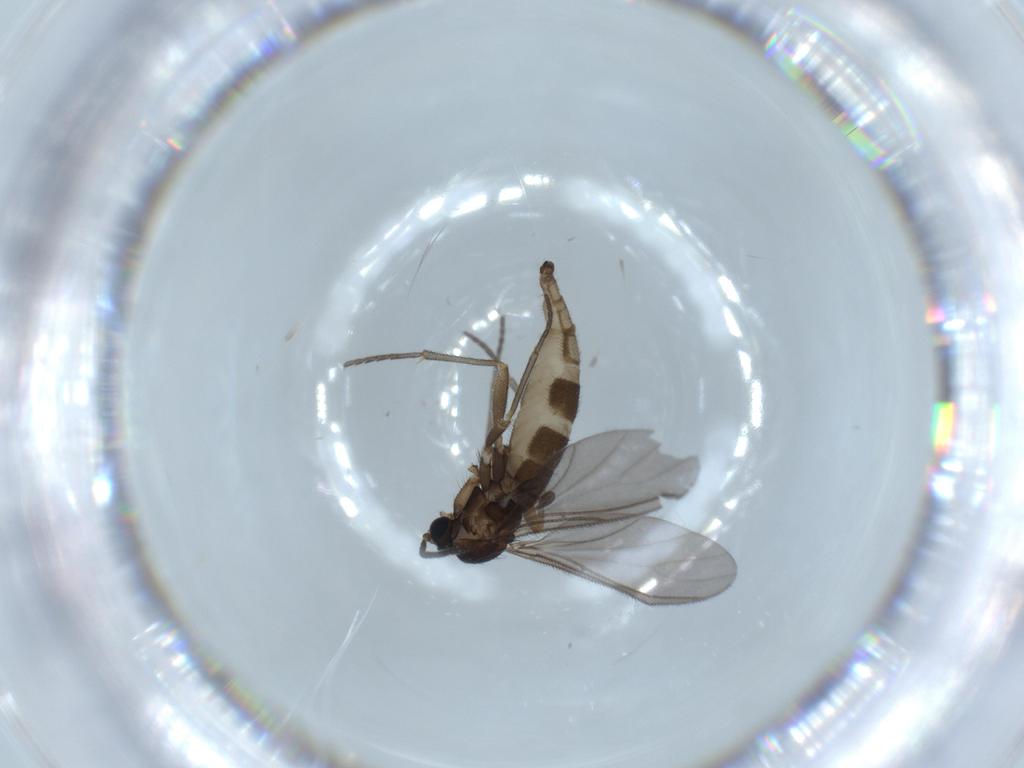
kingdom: Animalia
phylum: Arthropoda
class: Insecta
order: Diptera
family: Sciaridae
